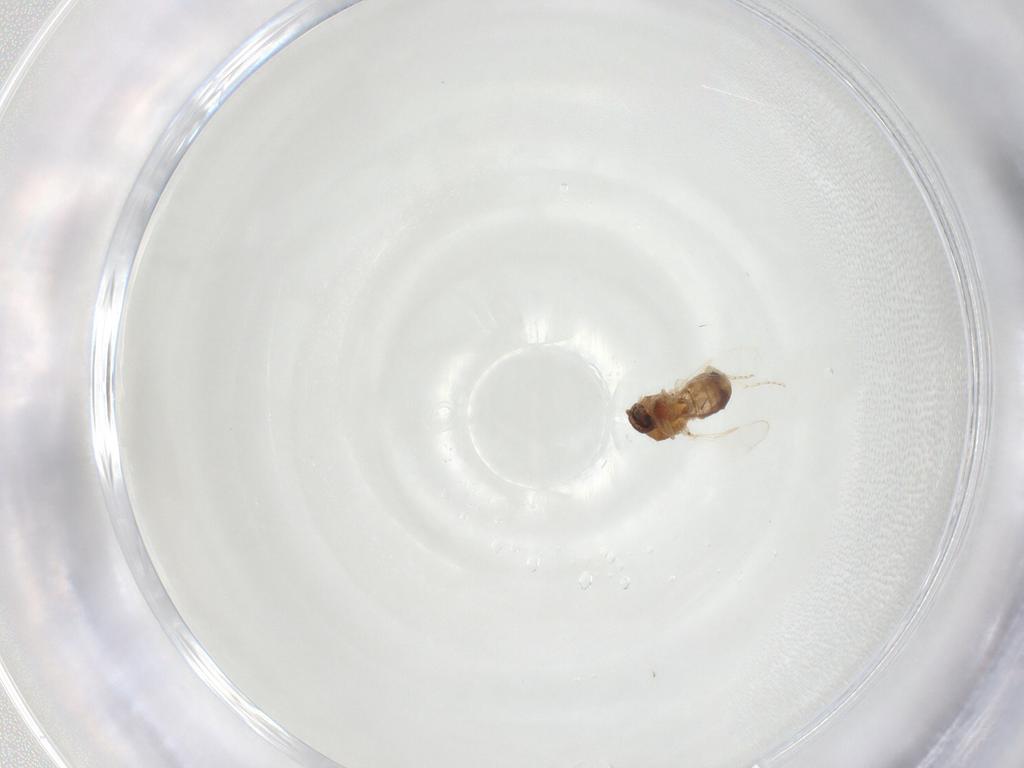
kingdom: Animalia
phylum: Arthropoda
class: Insecta
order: Diptera
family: Ceratopogonidae
